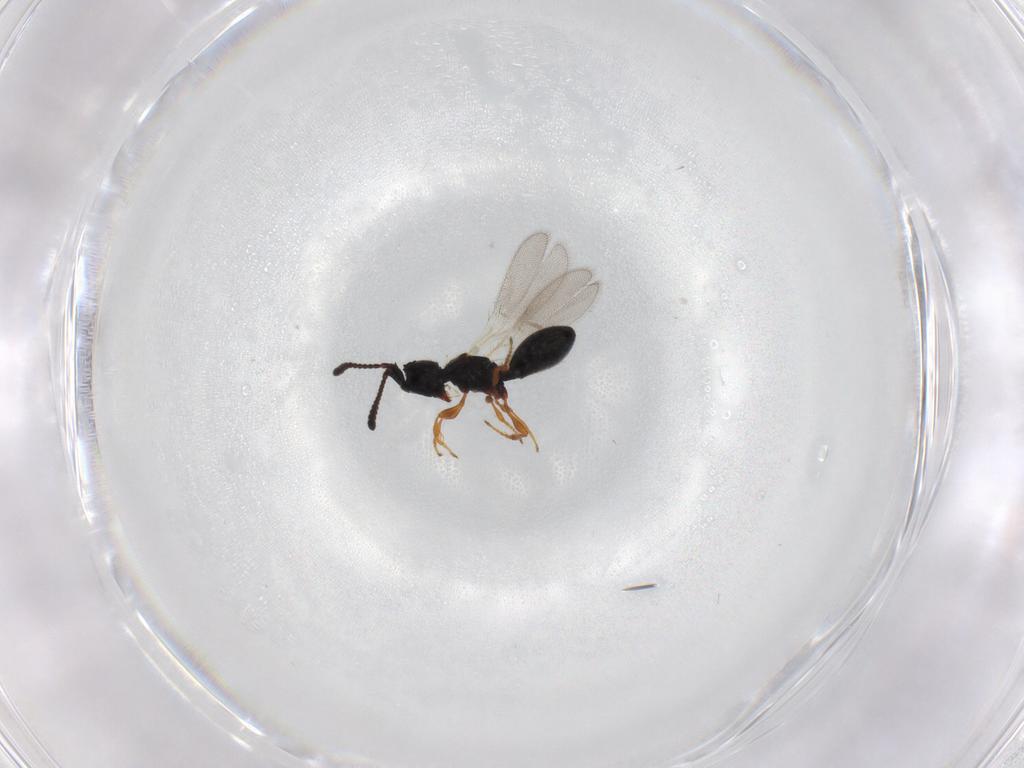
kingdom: Animalia
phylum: Arthropoda
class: Insecta
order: Hymenoptera
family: Diapriidae
